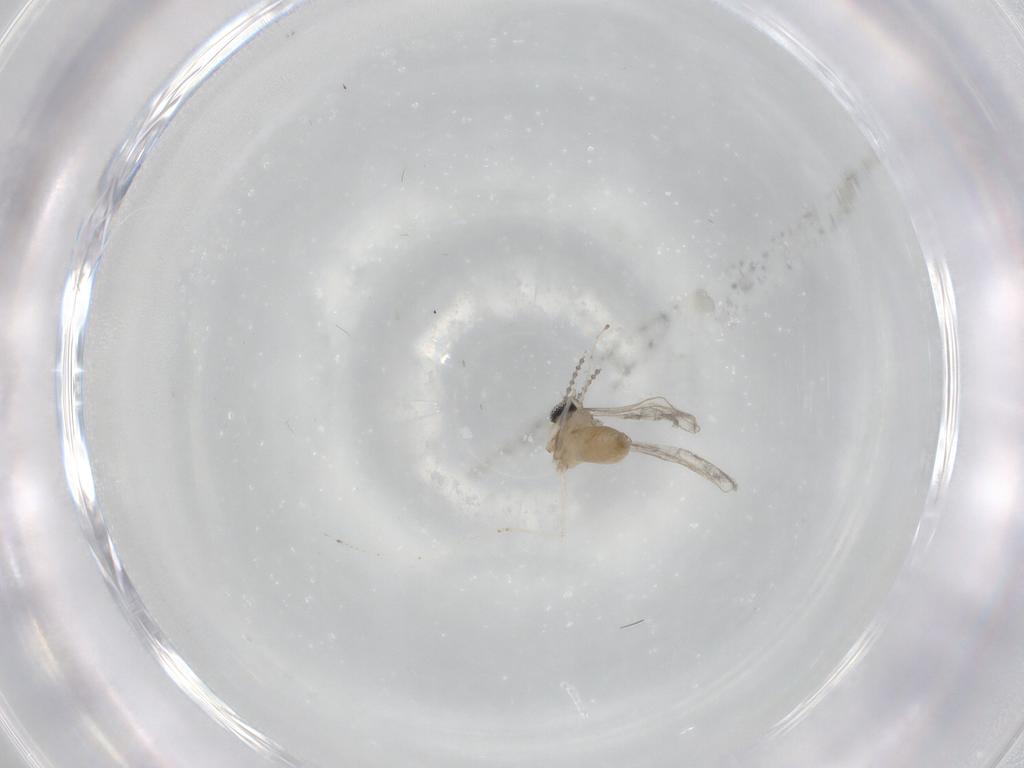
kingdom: Animalia
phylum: Arthropoda
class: Insecta
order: Diptera
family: Cecidomyiidae
